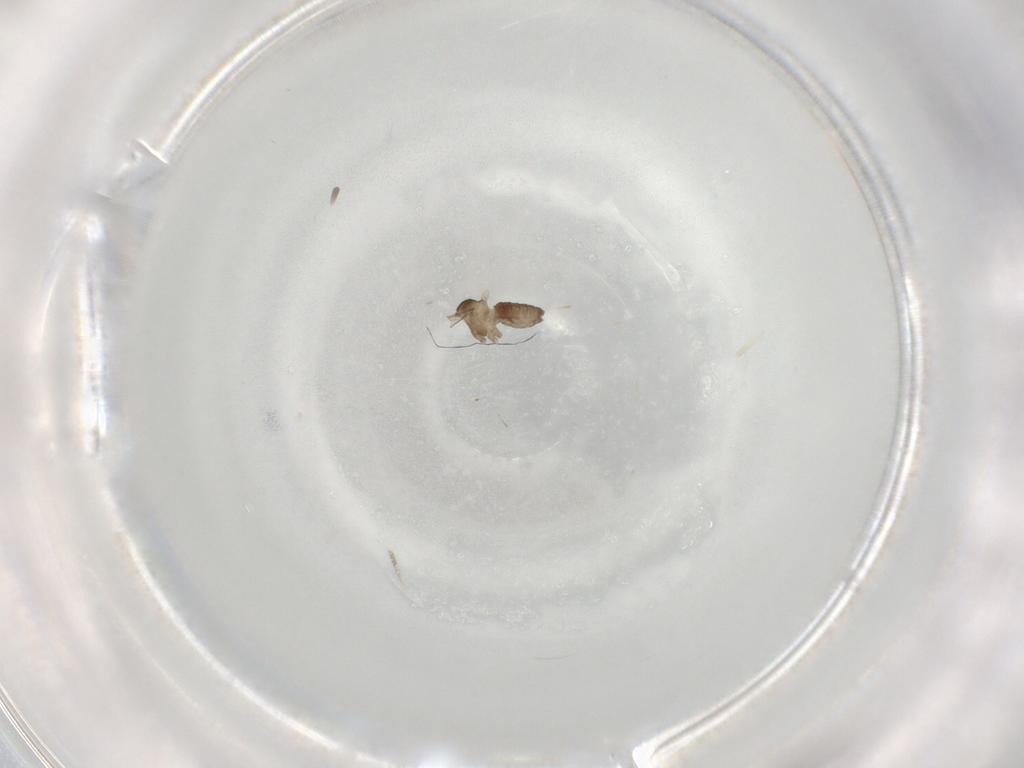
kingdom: Animalia
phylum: Arthropoda
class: Insecta
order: Diptera
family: Cecidomyiidae
